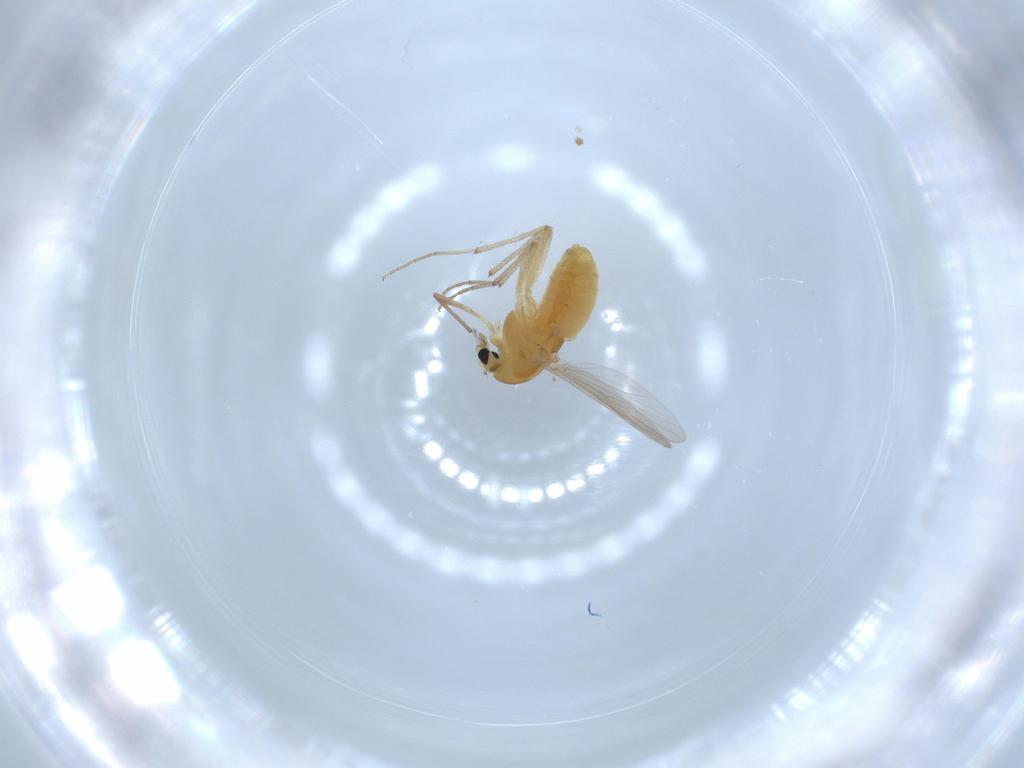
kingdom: Animalia
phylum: Arthropoda
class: Insecta
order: Diptera
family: Chironomidae
